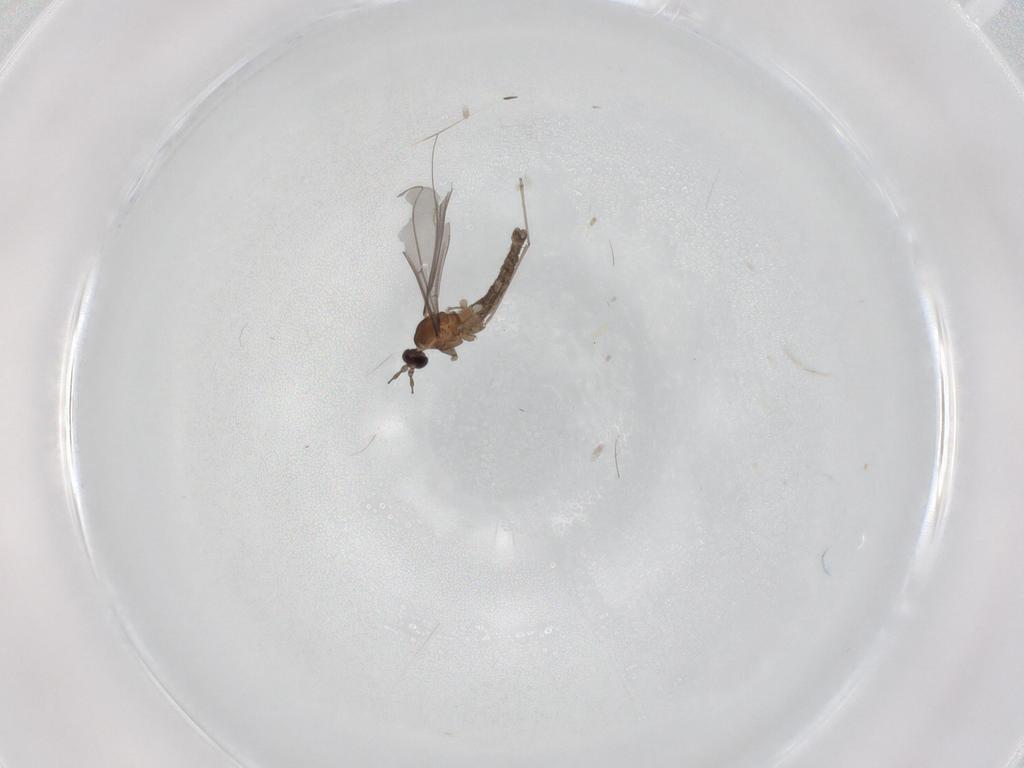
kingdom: Animalia
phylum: Arthropoda
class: Insecta
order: Diptera
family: Cecidomyiidae
